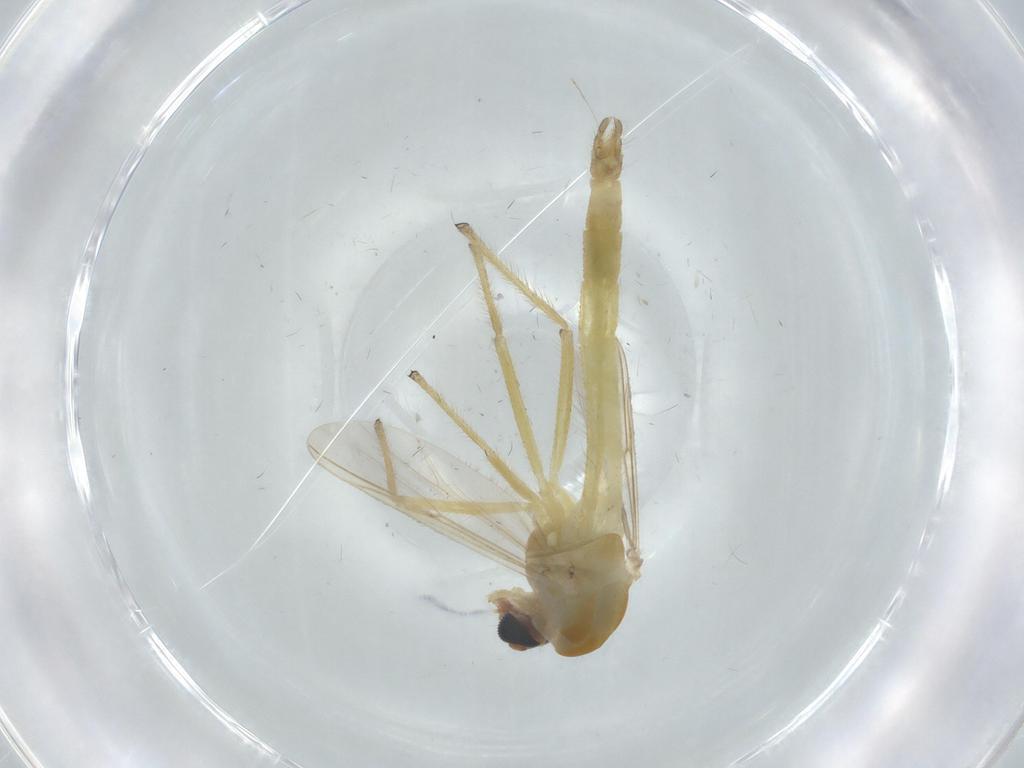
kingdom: Animalia
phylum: Arthropoda
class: Insecta
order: Diptera
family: Chironomidae
